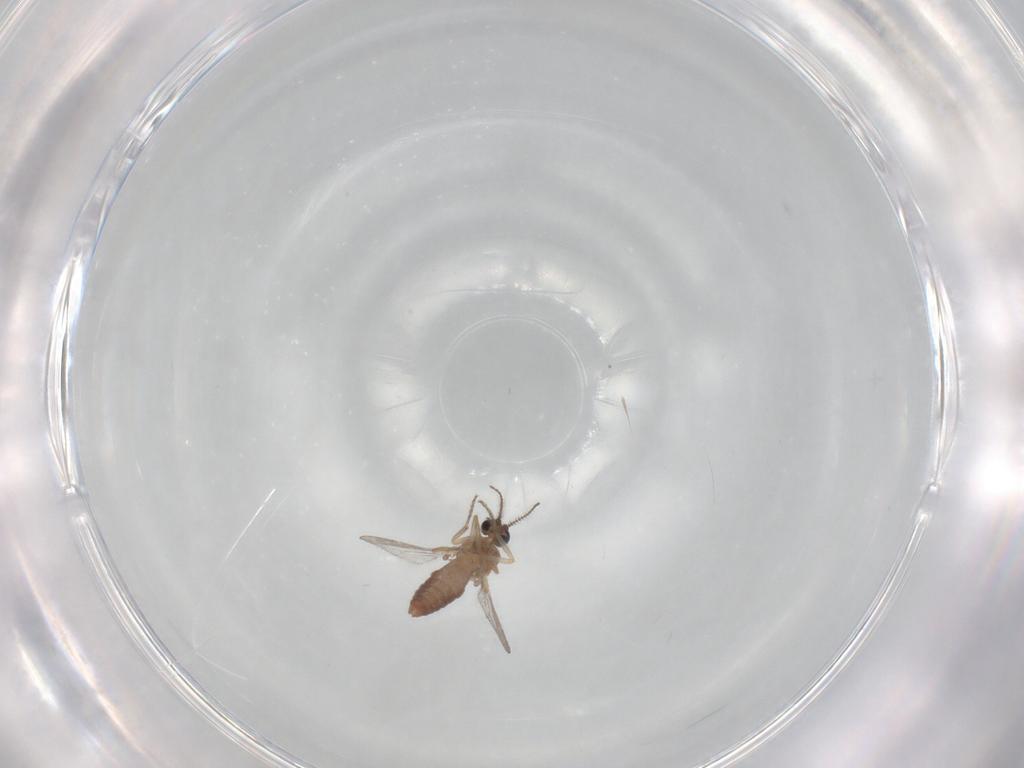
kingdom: Animalia
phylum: Arthropoda
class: Insecta
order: Diptera
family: Ceratopogonidae
